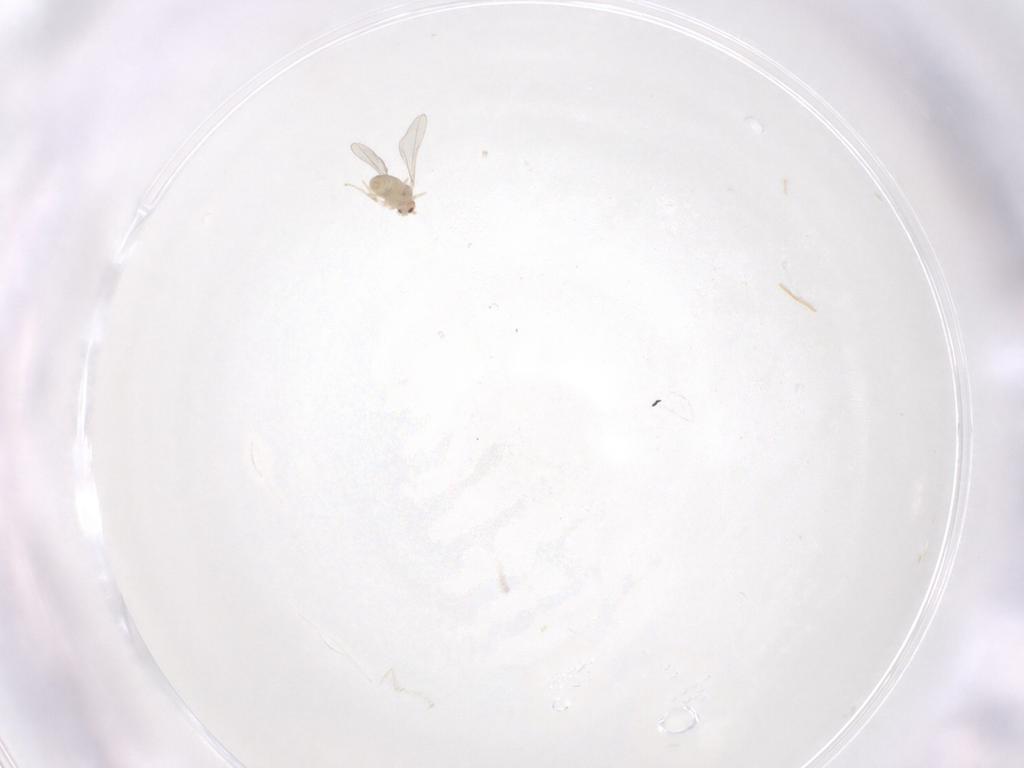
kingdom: Animalia
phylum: Arthropoda
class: Insecta
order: Diptera
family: Cecidomyiidae
